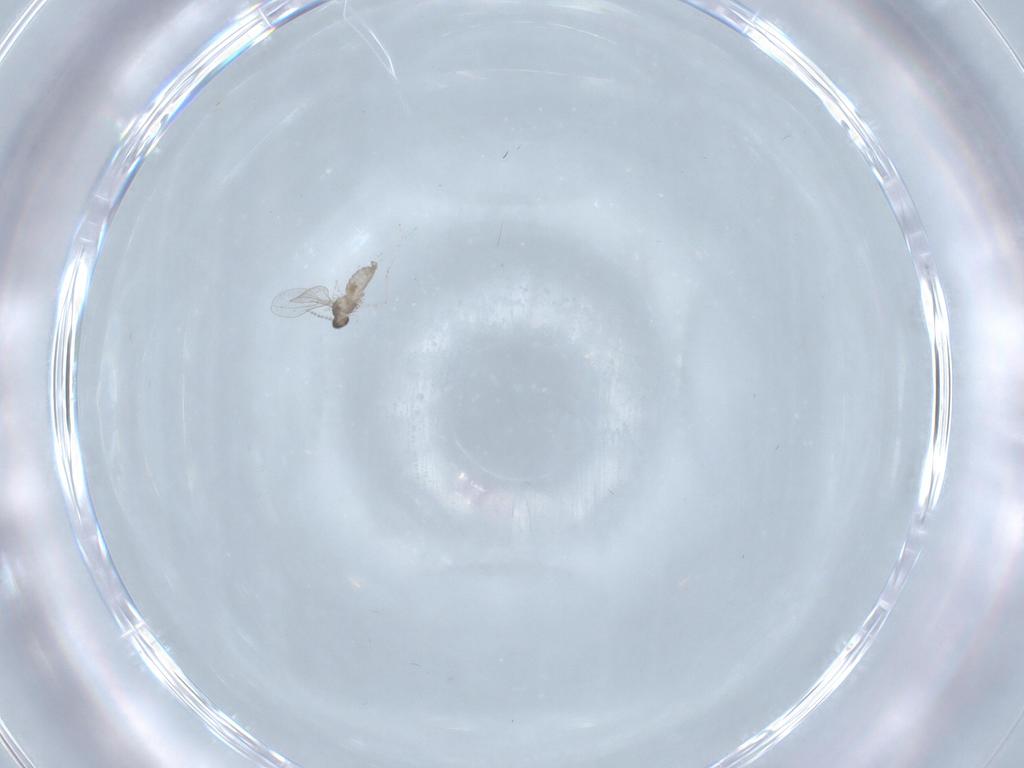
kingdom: Animalia
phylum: Arthropoda
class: Insecta
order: Diptera
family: Cecidomyiidae
